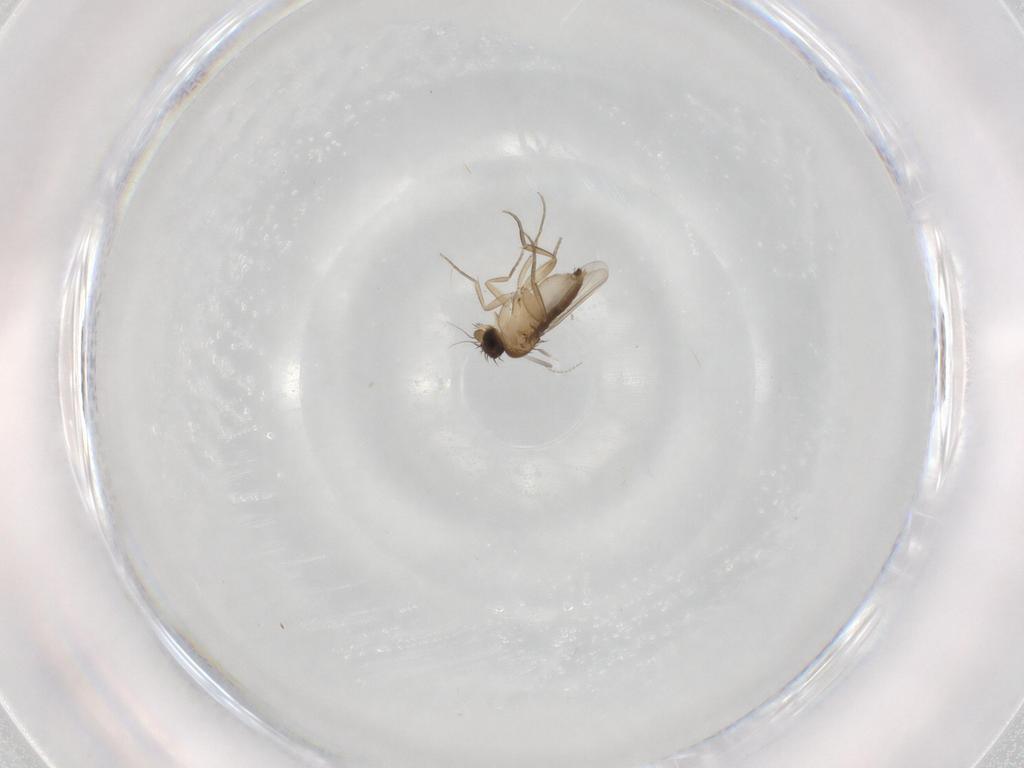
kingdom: Animalia
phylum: Arthropoda
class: Insecta
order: Diptera
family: Phoridae
